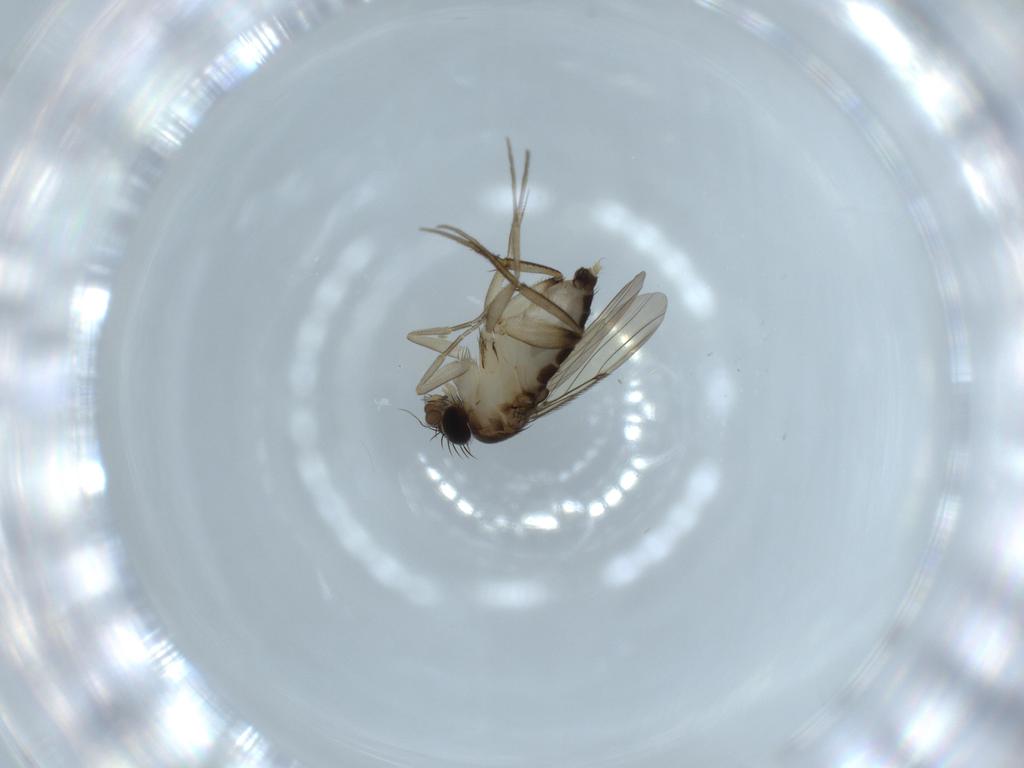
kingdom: Animalia
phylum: Arthropoda
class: Insecta
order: Diptera
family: Phoridae
